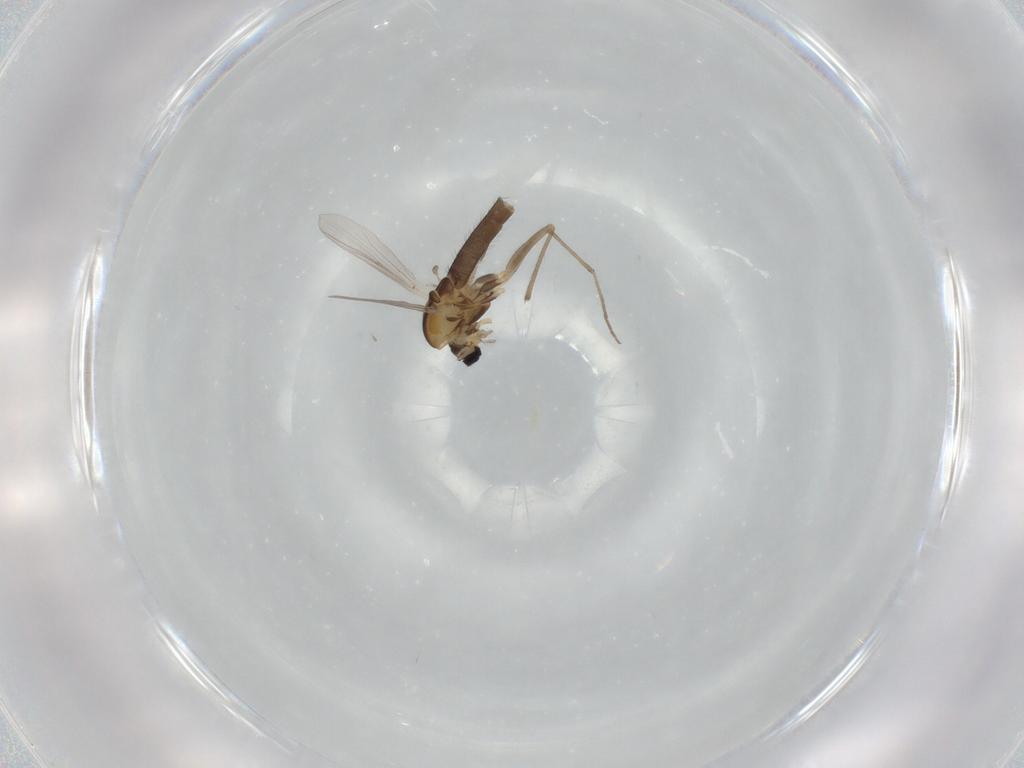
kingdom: Animalia
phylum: Arthropoda
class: Insecta
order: Diptera
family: Chironomidae
